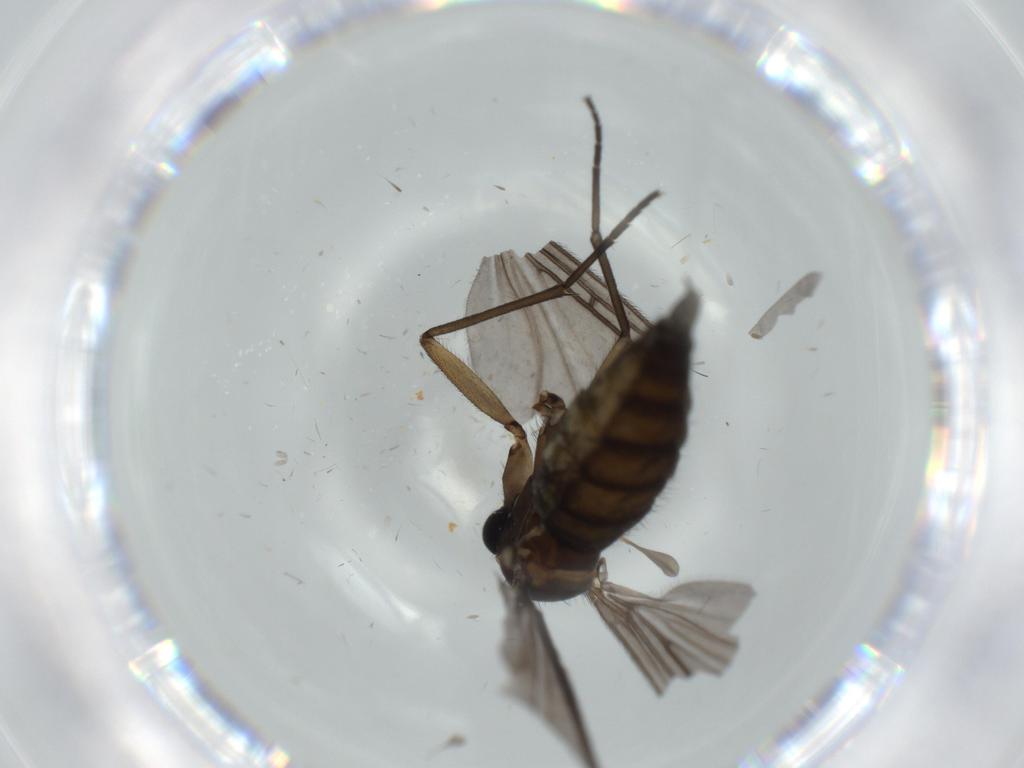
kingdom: Animalia
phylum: Arthropoda
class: Insecta
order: Diptera
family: Sciaridae
